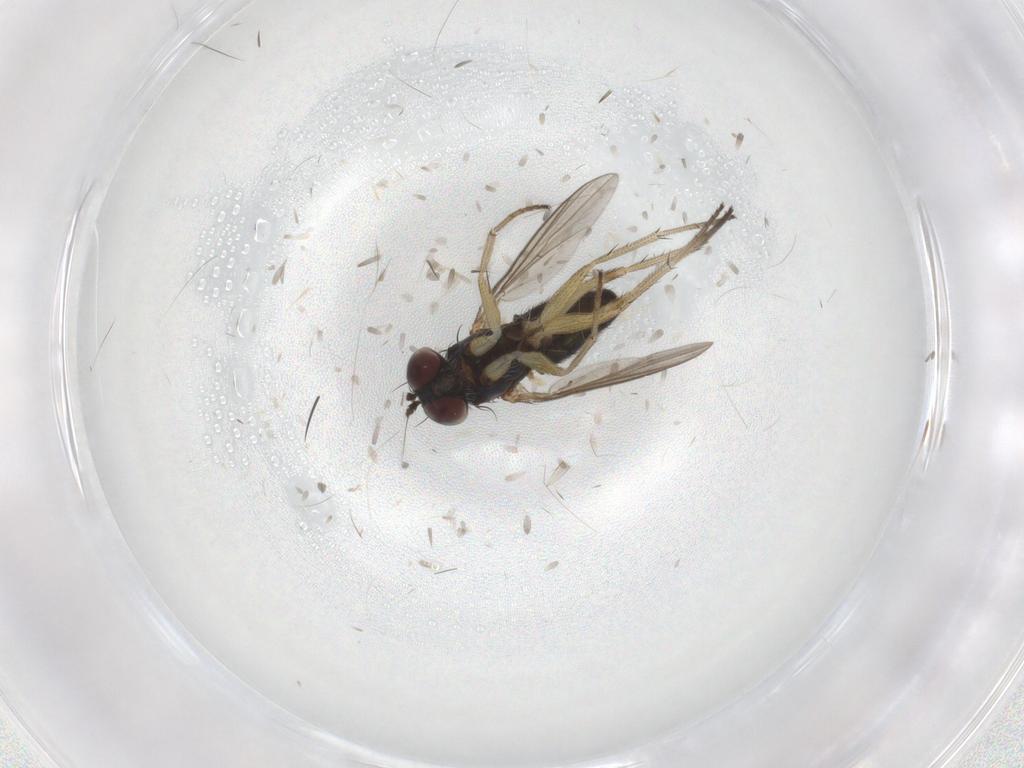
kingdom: Animalia
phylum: Arthropoda
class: Insecta
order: Diptera
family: Dolichopodidae
